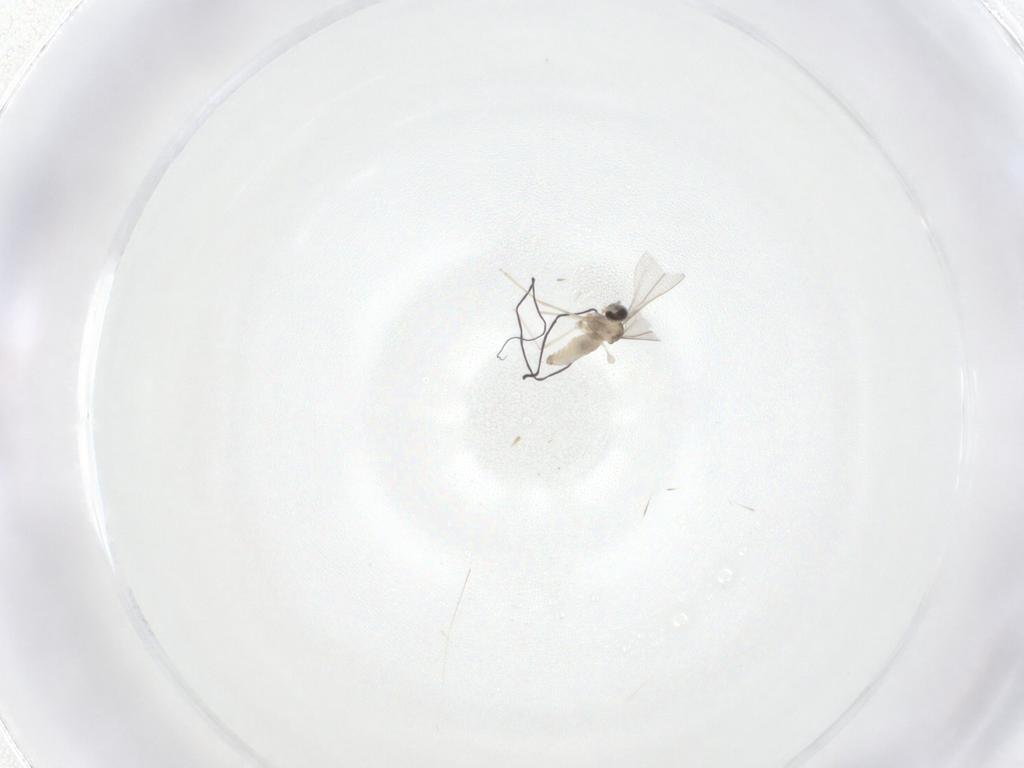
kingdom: Animalia
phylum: Arthropoda
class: Insecta
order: Diptera
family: Cecidomyiidae
